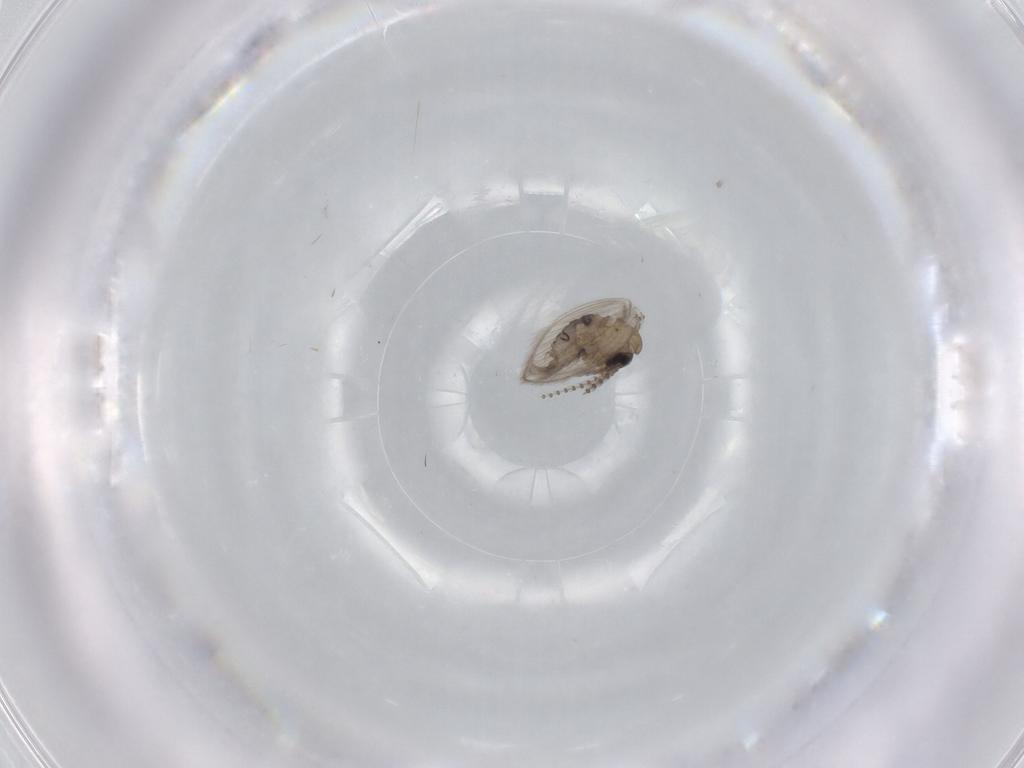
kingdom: Animalia
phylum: Arthropoda
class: Insecta
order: Diptera
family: Psychodidae
